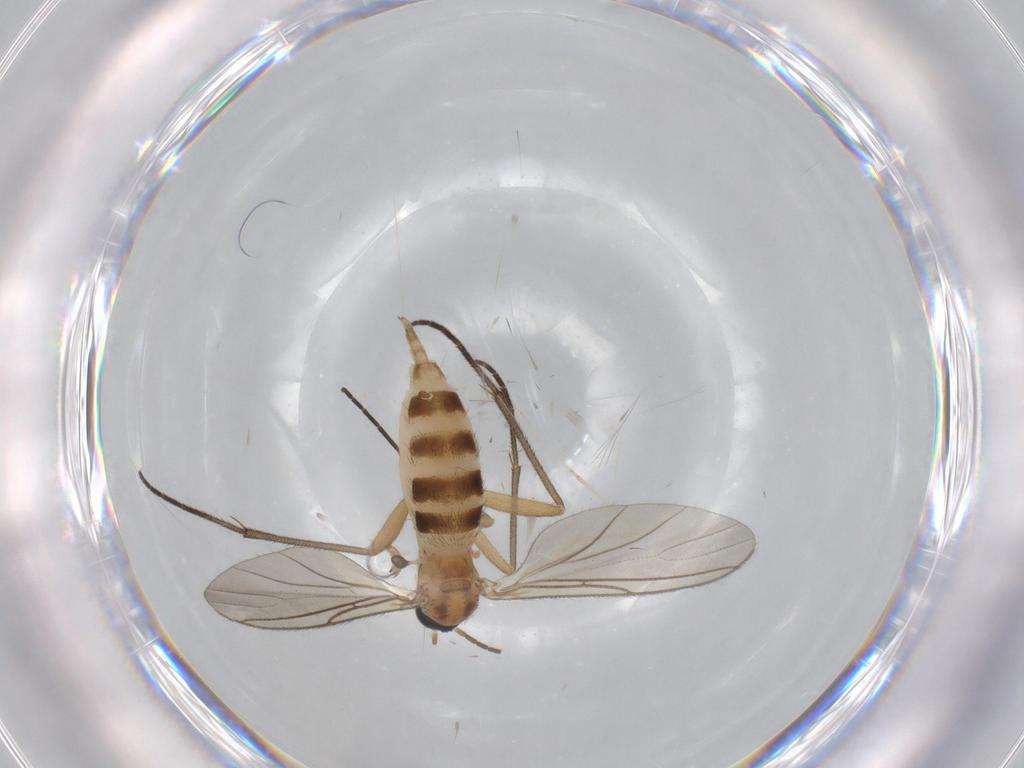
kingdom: Animalia
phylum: Arthropoda
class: Insecta
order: Diptera
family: Sciaridae
